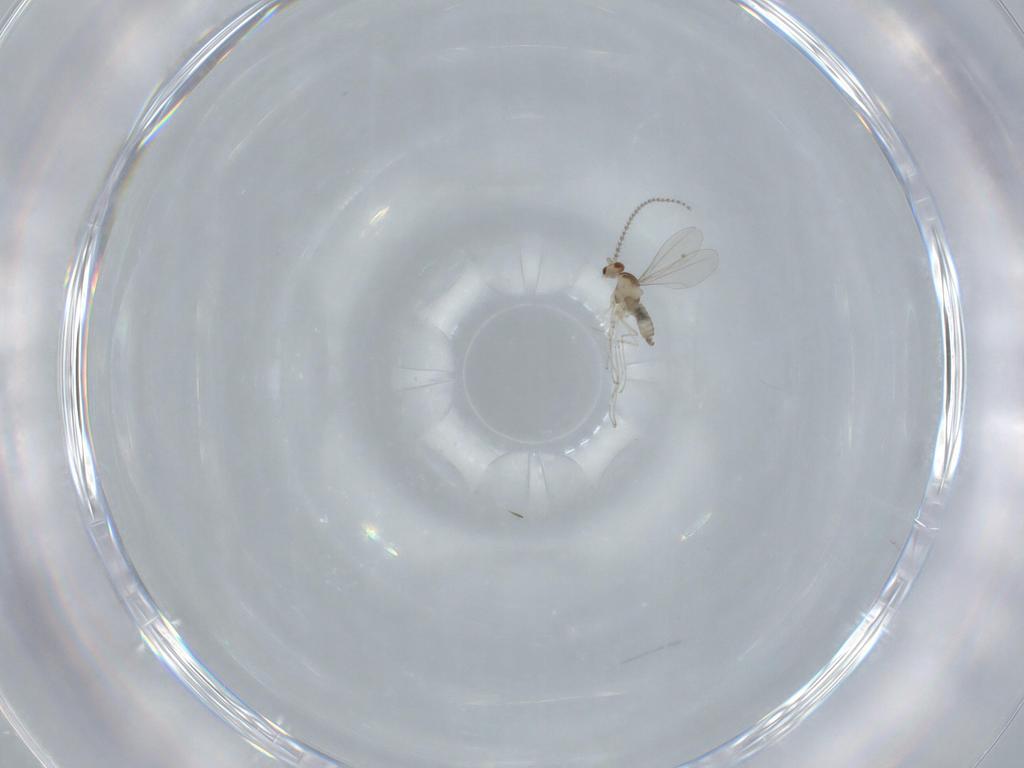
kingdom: Animalia
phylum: Arthropoda
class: Insecta
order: Diptera
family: Cecidomyiidae
